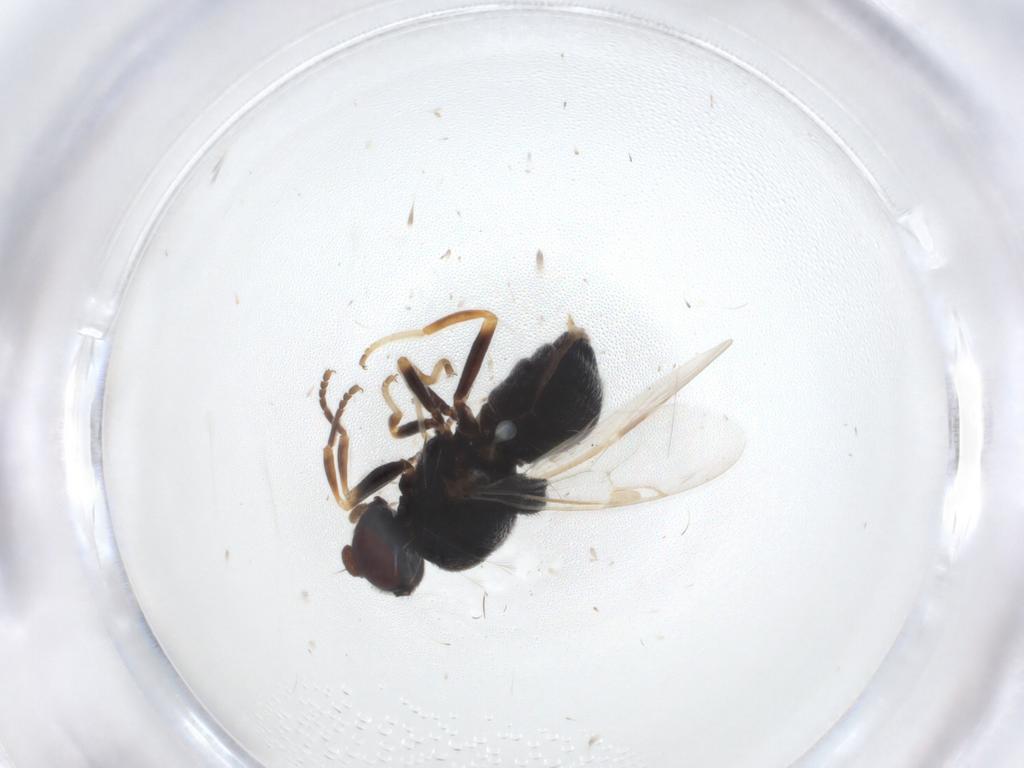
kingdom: Animalia
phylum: Arthropoda
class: Insecta
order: Diptera
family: Stratiomyidae
